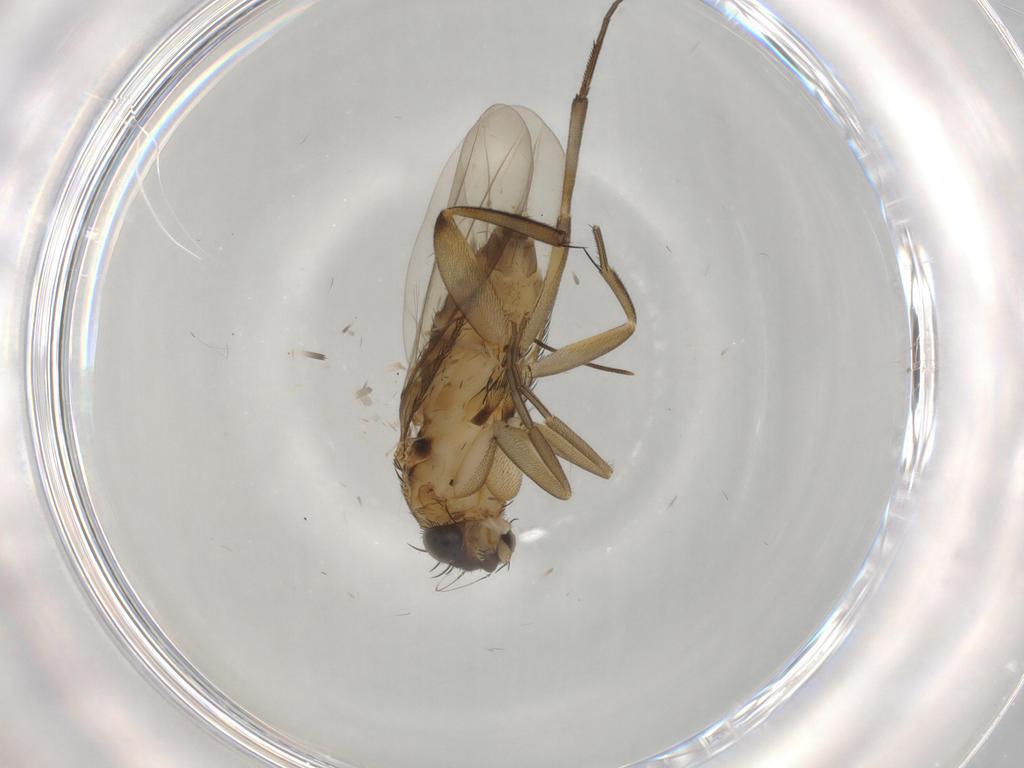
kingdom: Animalia
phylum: Arthropoda
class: Insecta
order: Diptera
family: Phoridae
